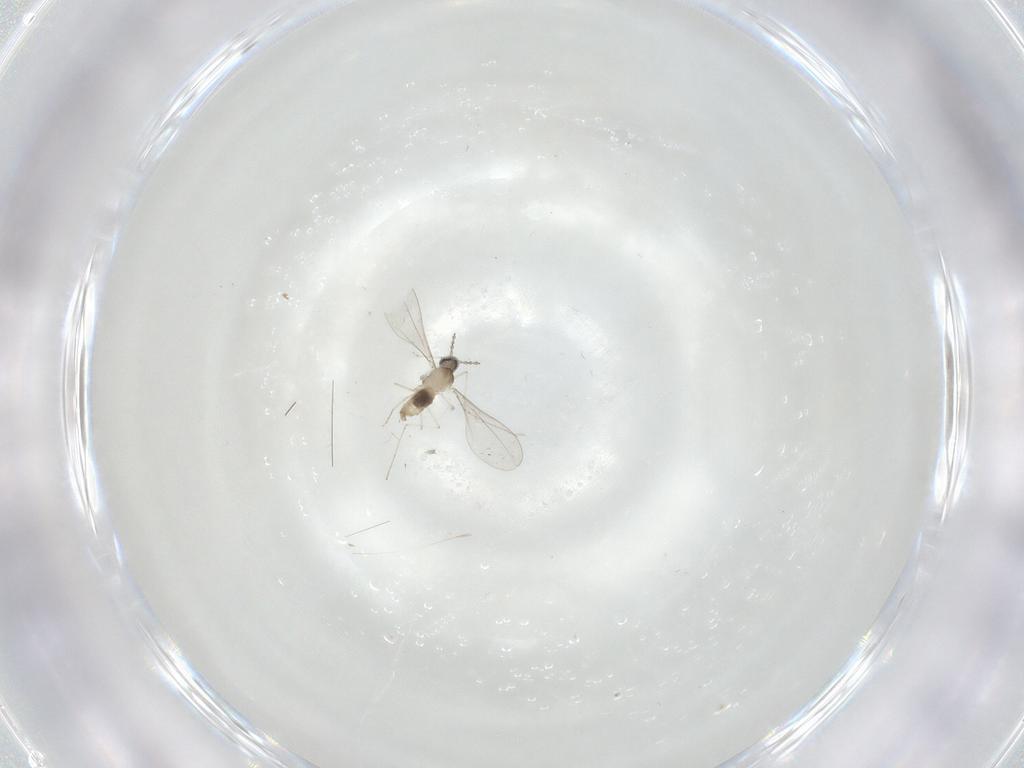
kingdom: Animalia
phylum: Arthropoda
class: Insecta
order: Diptera
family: Cecidomyiidae
